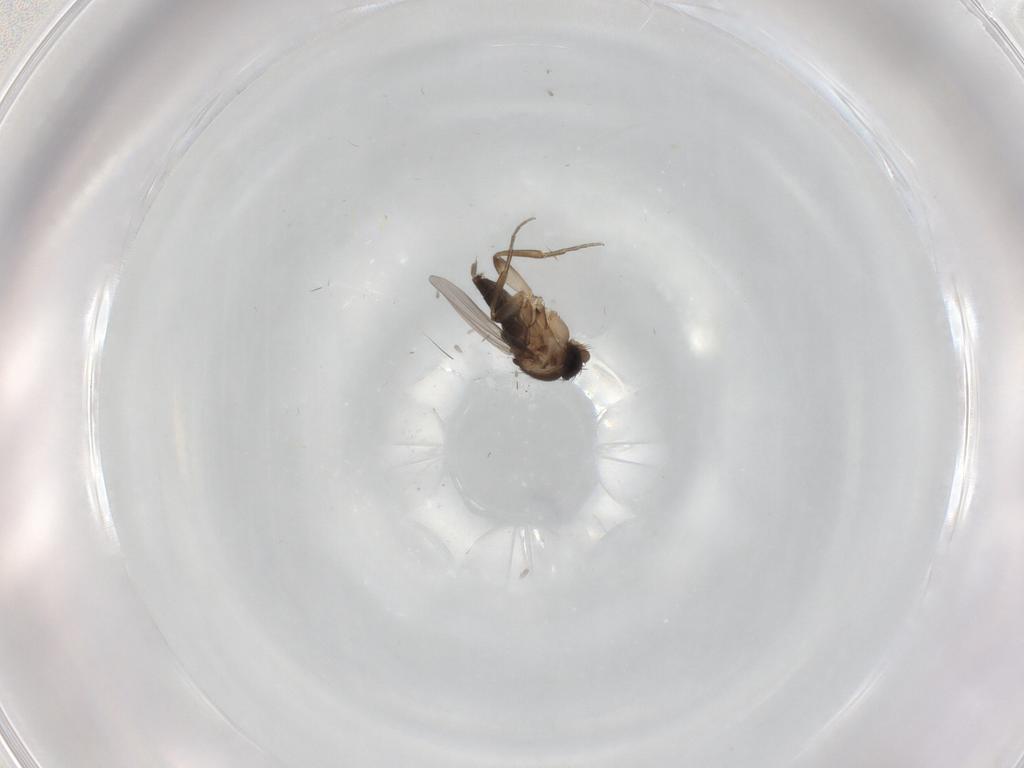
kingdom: Animalia
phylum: Arthropoda
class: Insecta
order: Diptera
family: Phoridae
